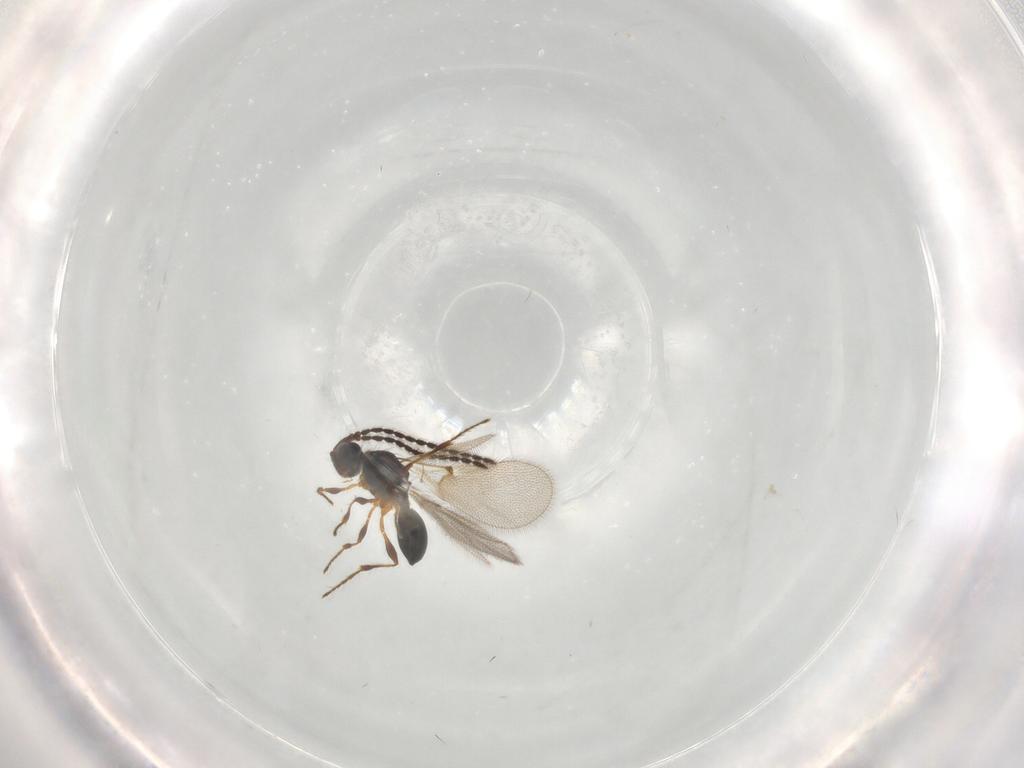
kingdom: Animalia
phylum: Arthropoda
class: Insecta
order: Hymenoptera
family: Diapriidae
